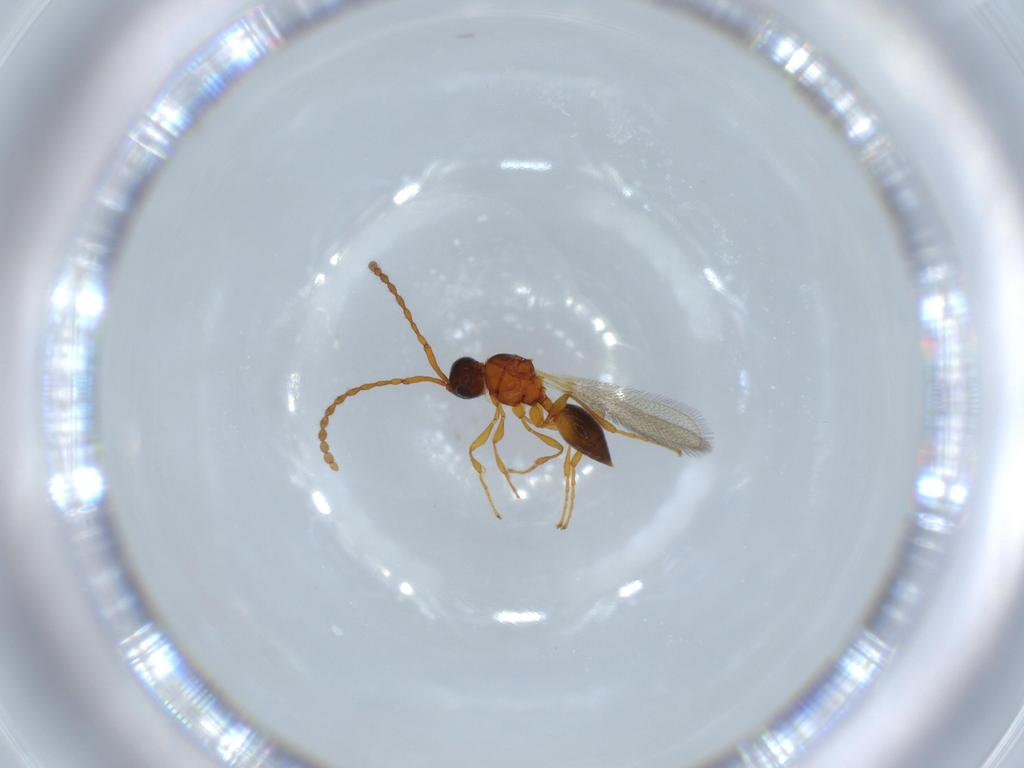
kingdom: Animalia
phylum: Arthropoda
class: Insecta
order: Hymenoptera
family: Diapriidae
